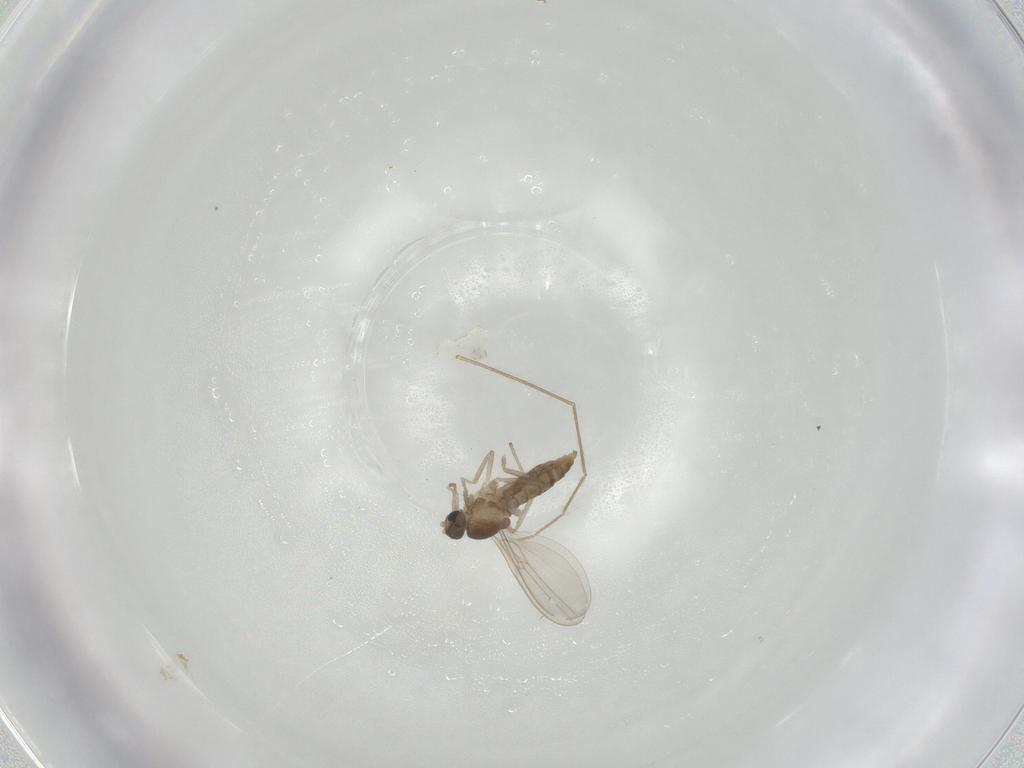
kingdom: Animalia
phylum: Arthropoda
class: Insecta
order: Diptera
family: Cecidomyiidae
